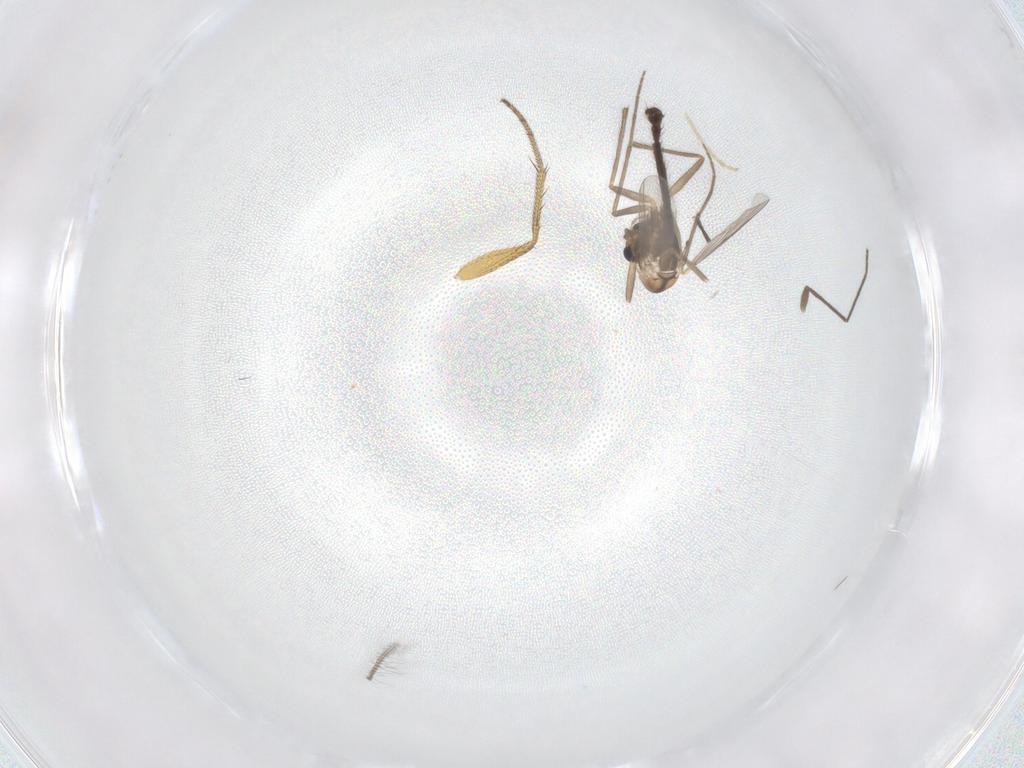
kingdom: Animalia
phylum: Arthropoda
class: Insecta
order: Diptera
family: Chironomidae
